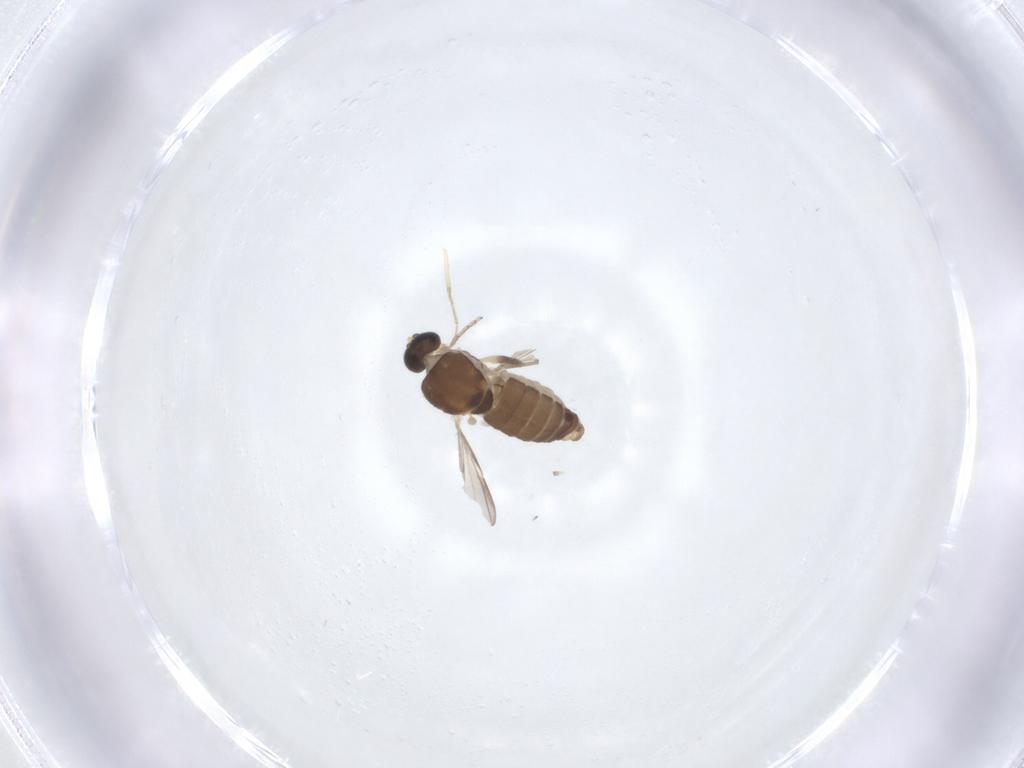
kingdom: Animalia
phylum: Arthropoda
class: Insecta
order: Diptera
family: Ceratopogonidae
